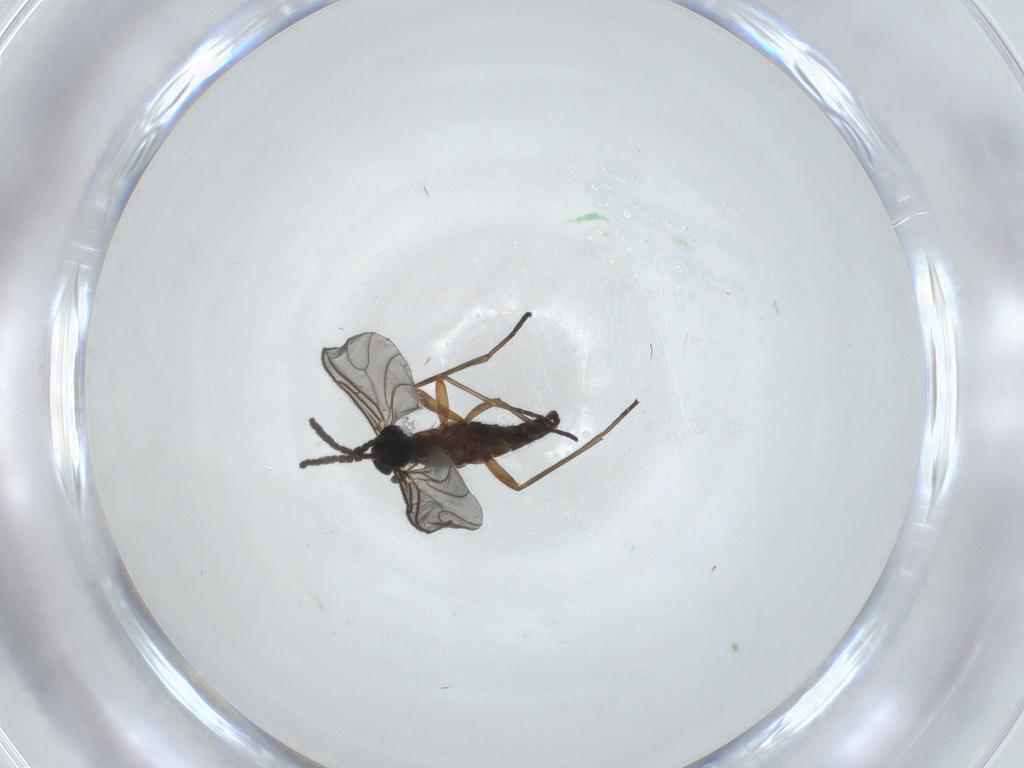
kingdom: Animalia
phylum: Arthropoda
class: Insecta
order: Diptera
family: Sciaridae
